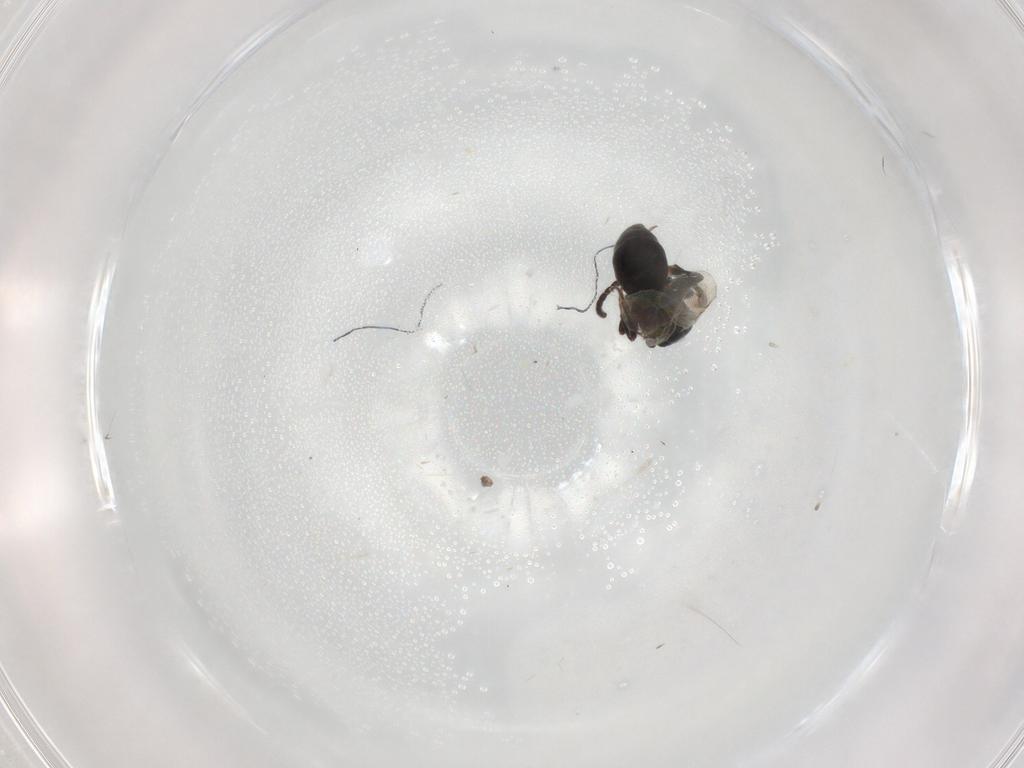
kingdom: Animalia
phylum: Arthropoda
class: Insecta
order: Hymenoptera
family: Bethylidae
